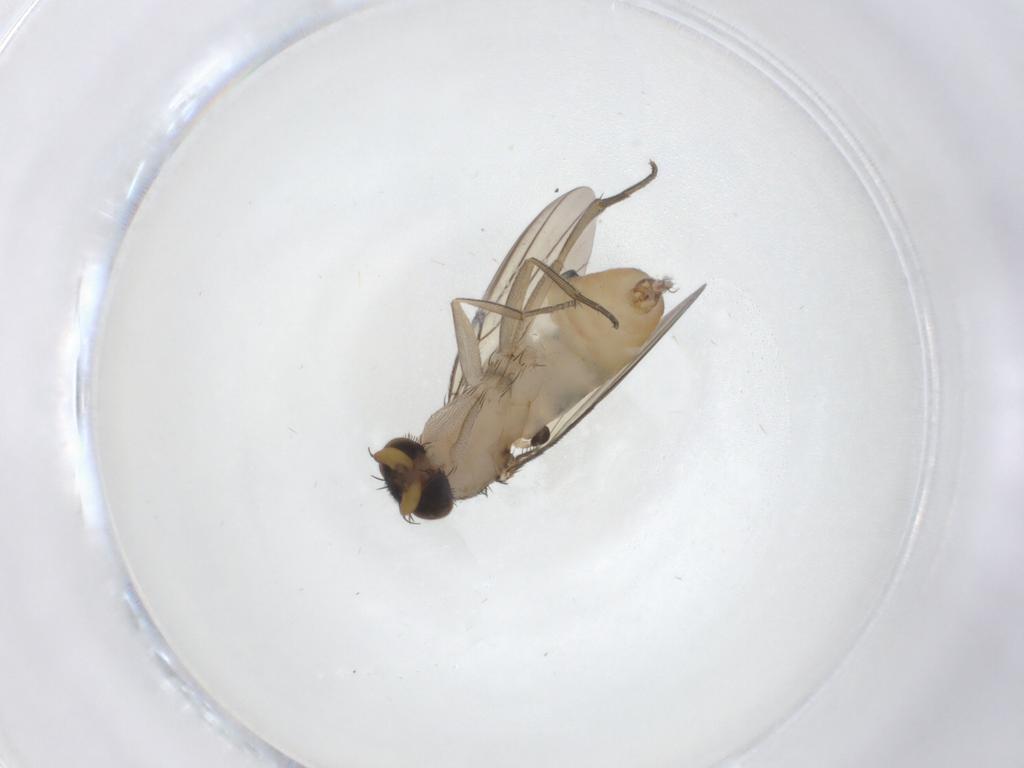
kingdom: Animalia
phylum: Arthropoda
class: Insecta
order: Diptera
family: Phoridae
